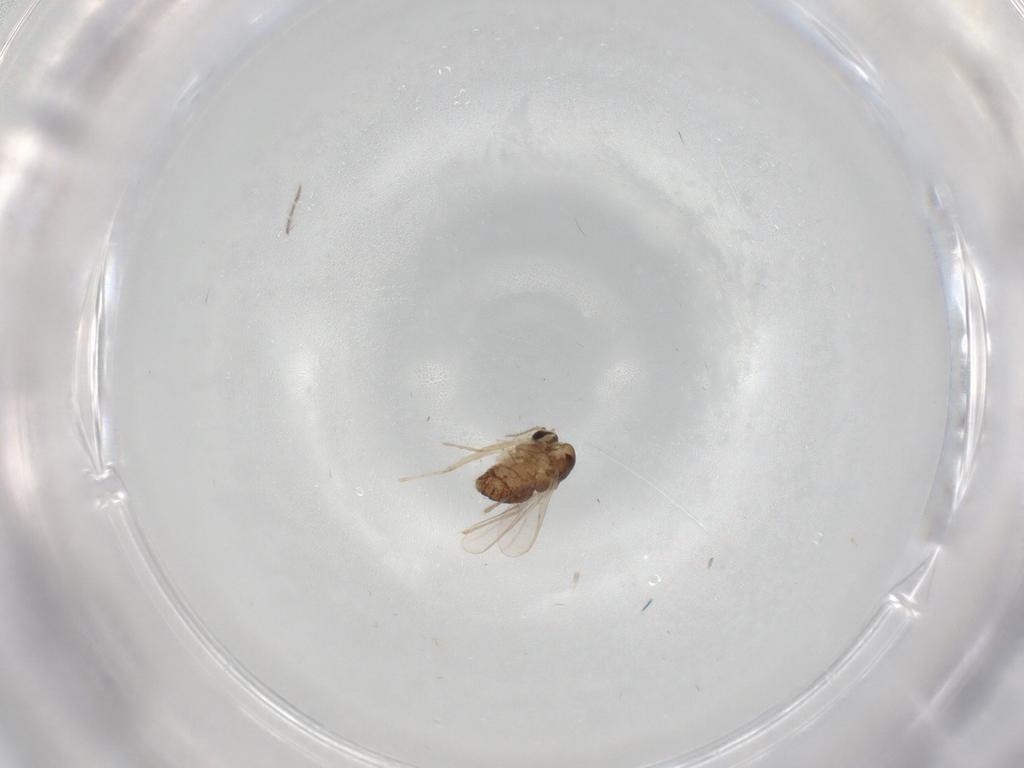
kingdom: Animalia
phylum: Arthropoda
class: Insecta
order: Diptera
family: Chironomidae
